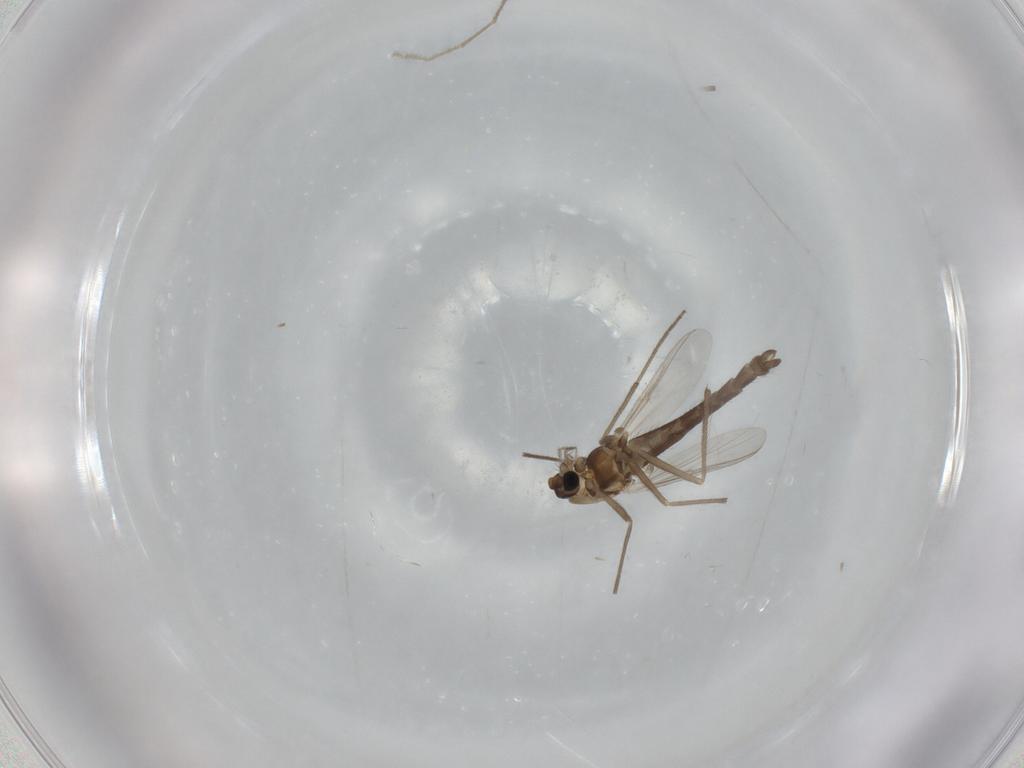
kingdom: Animalia
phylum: Arthropoda
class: Insecta
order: Diptera
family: Chironomidae
